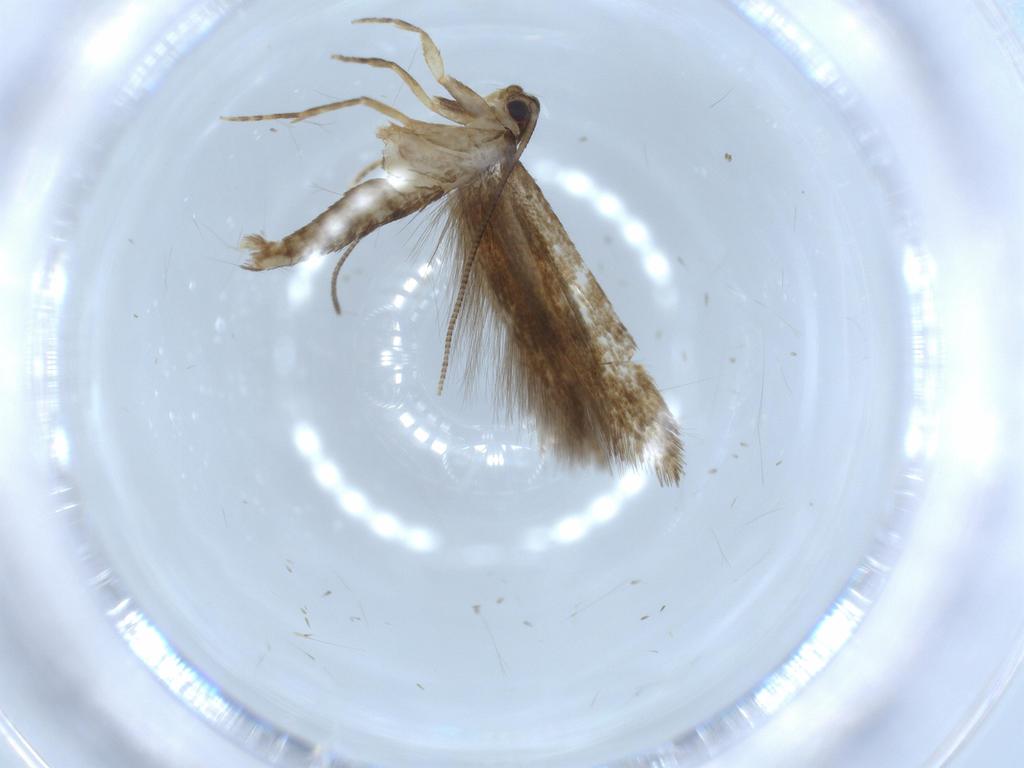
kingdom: Animalia
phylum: Arthropoda
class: Insecta
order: Lepidoptera
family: Tineidae
